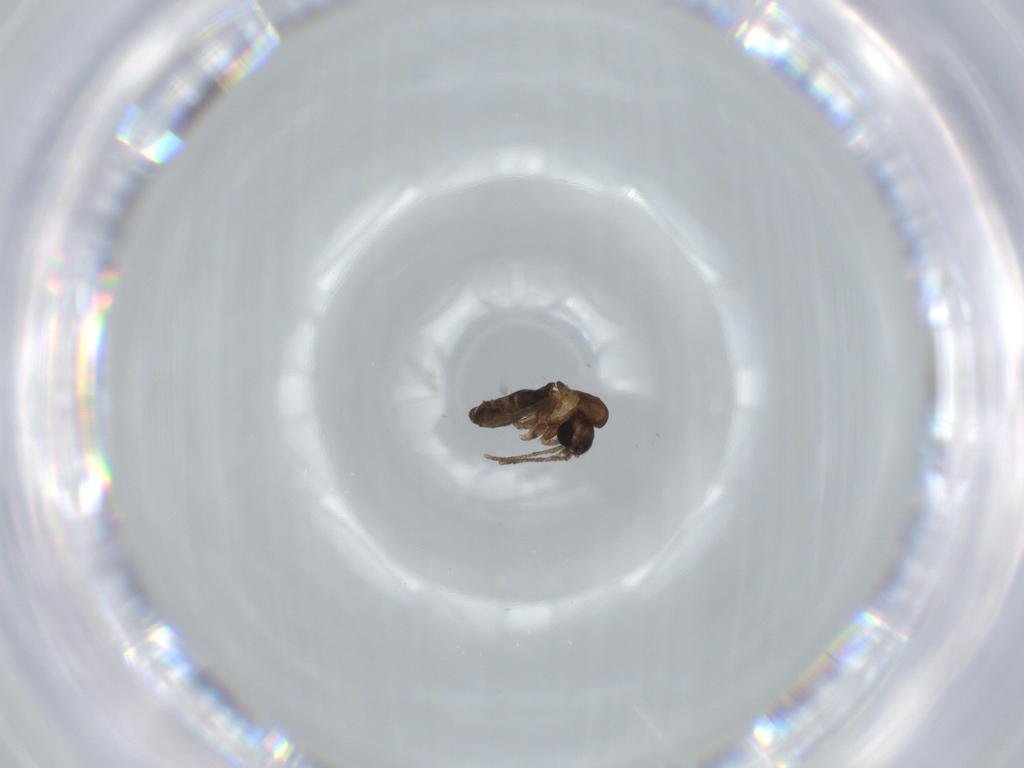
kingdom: Animalia
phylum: Arthropoda
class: Insecta
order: Diptera
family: Psychodidae
